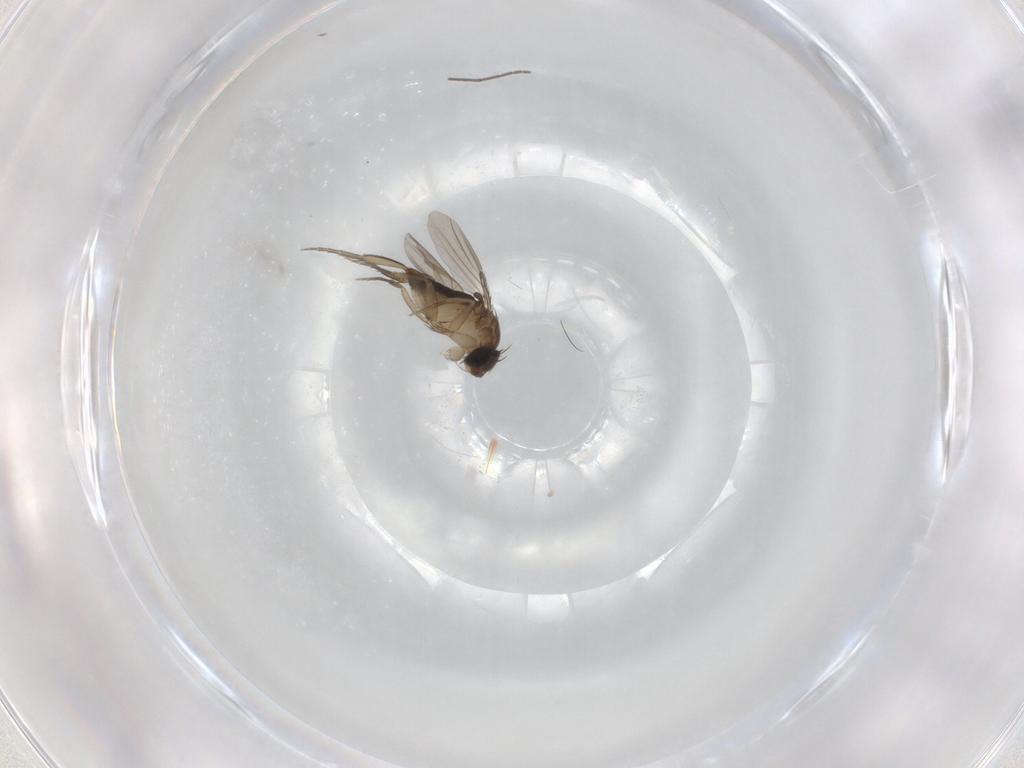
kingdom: Animalia
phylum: Arthropoda
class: Insecta
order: Diptera
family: Phoridae
